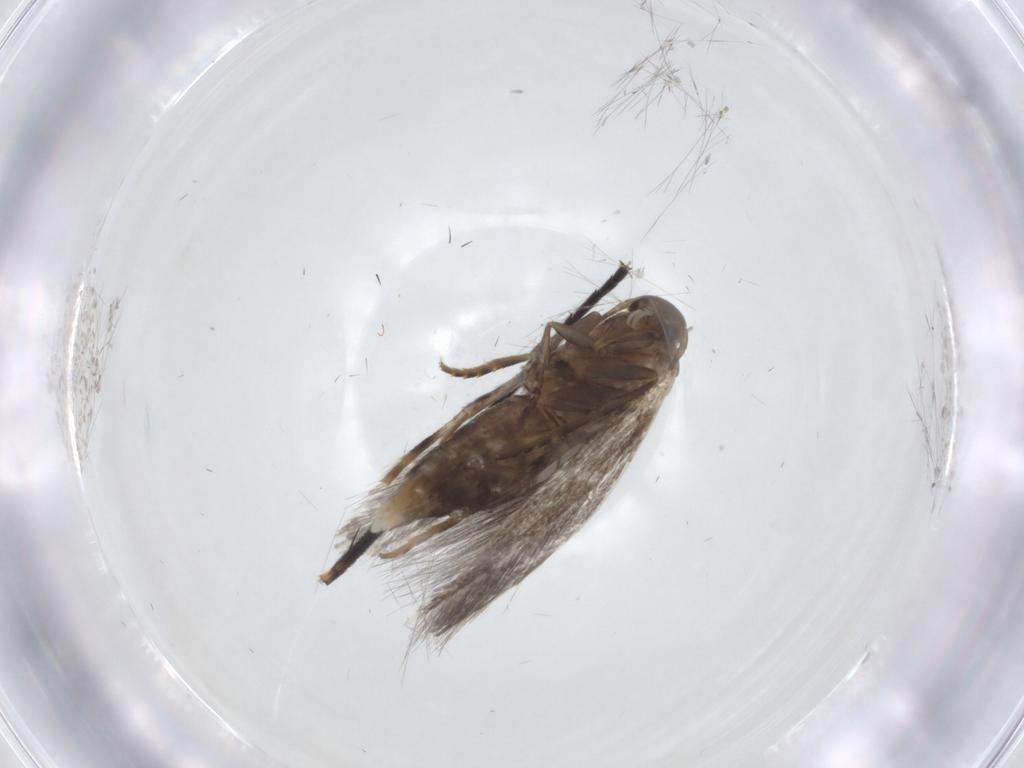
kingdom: Animalia
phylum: Arthropoda
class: Insecta
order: Lepidoptera
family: Elachistidae
